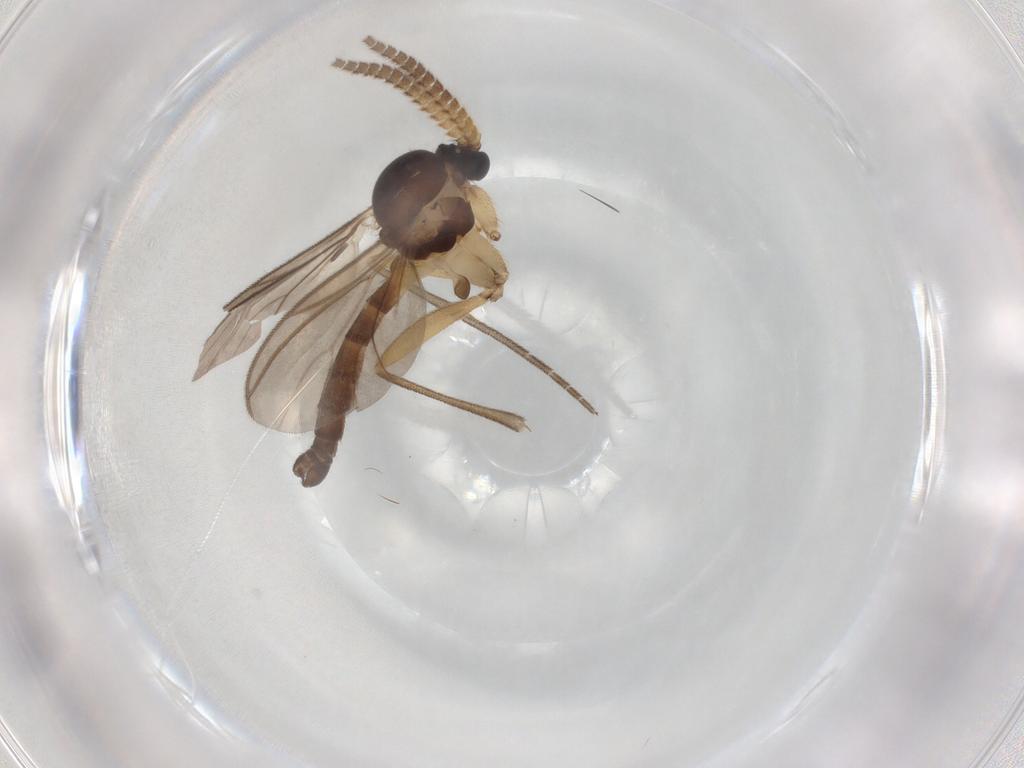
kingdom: Animalia
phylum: Arthropoda
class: Insecta
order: Diptera
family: Mycetophilidae
